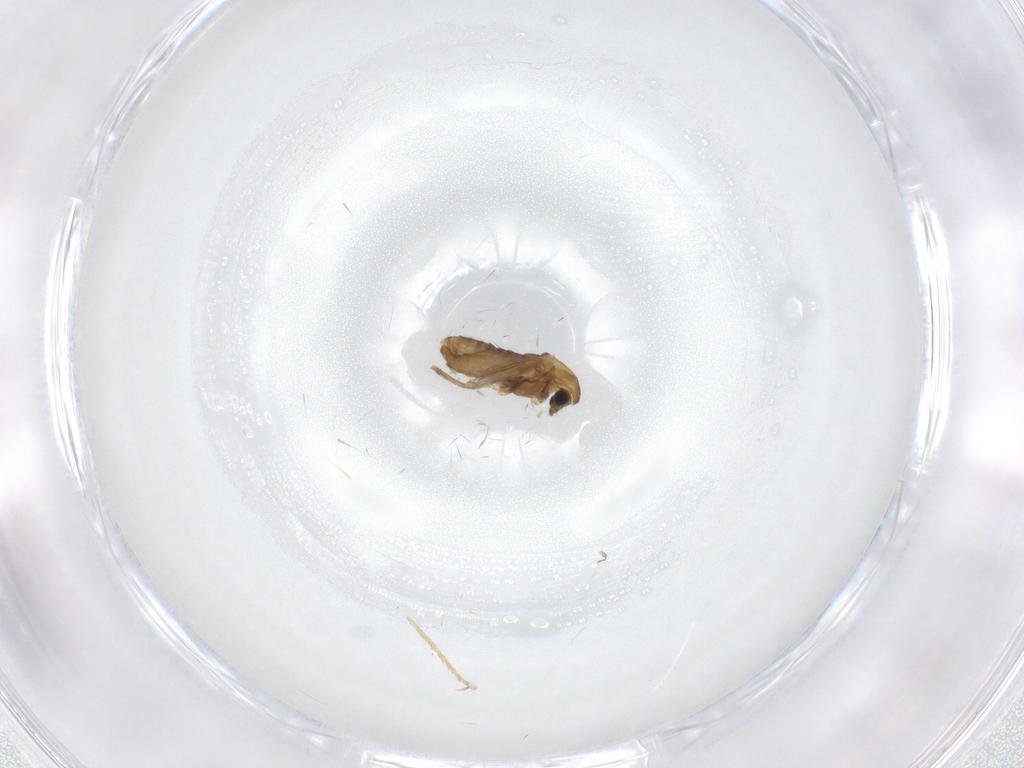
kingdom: Animalia
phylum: Arthropoda
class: Insecta
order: Diptera
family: Chironomidae
